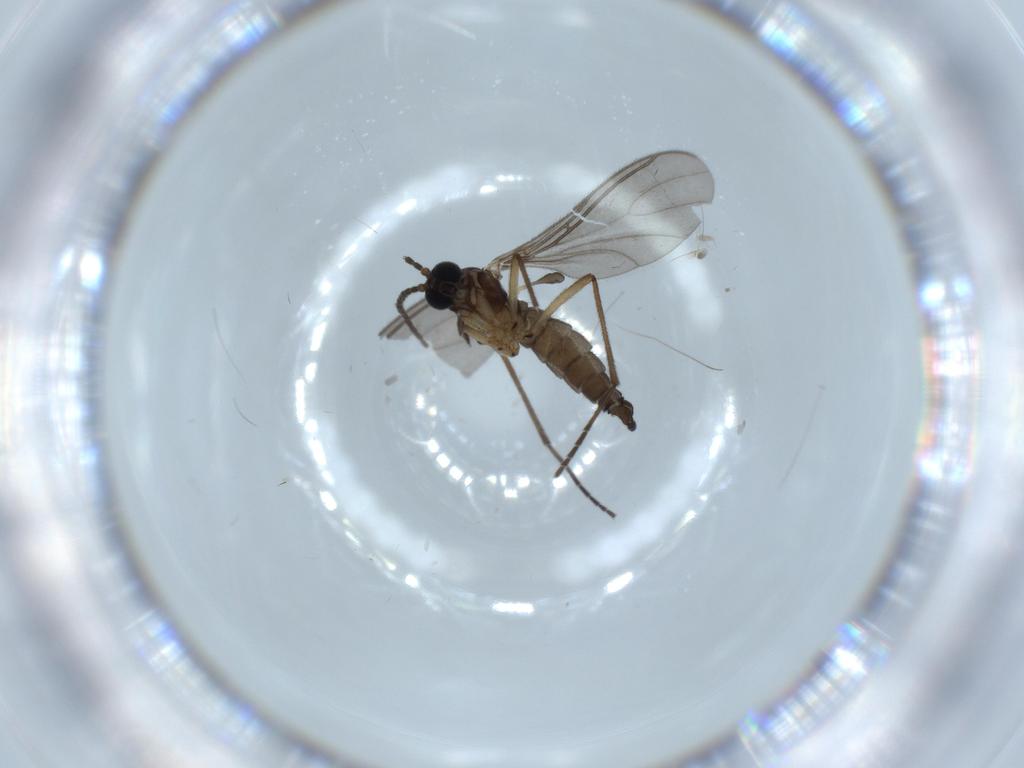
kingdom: Animalia
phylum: Arthropoda
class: Insecta
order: Diptera
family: Sciaridae
